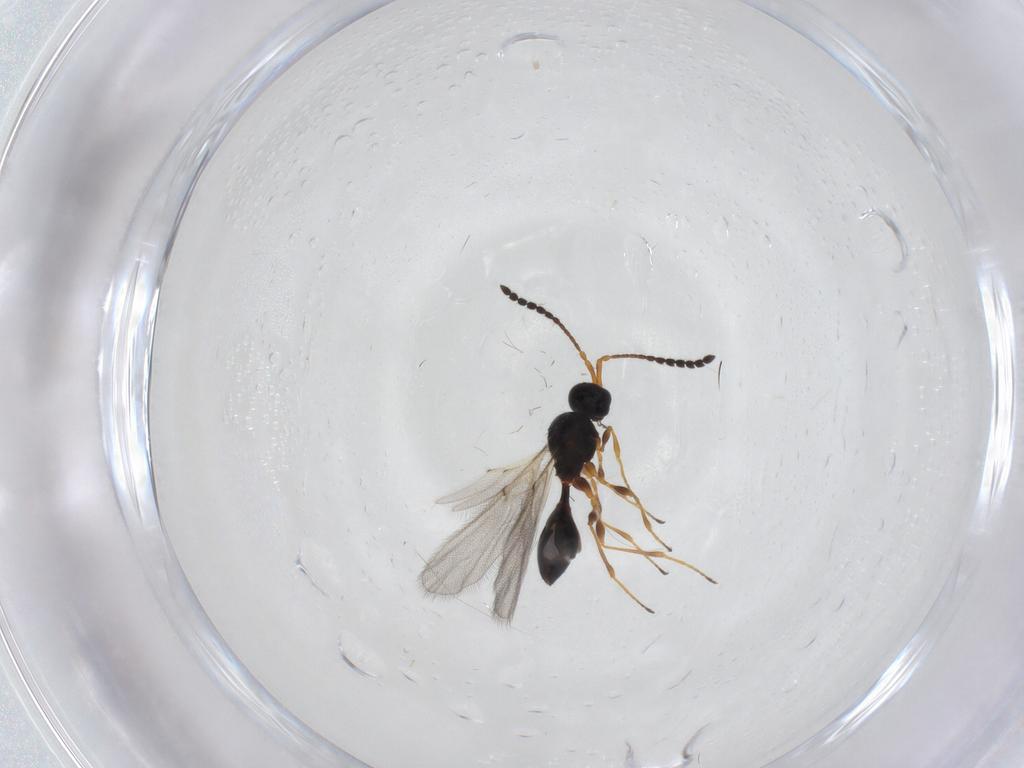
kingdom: Animalia
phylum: Arthropoda
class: Insecta
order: Hymenoptera
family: Diapriidae
